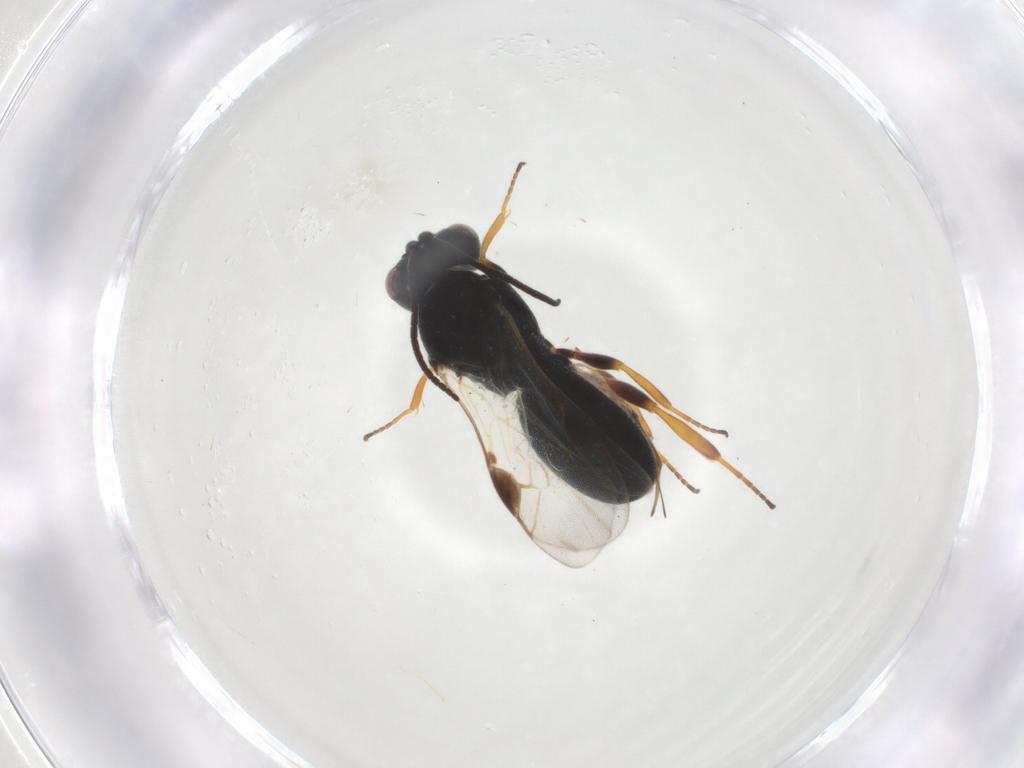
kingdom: Animalia
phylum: Arthropoda
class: Insecta
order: Hymenoptera
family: Braconidae
